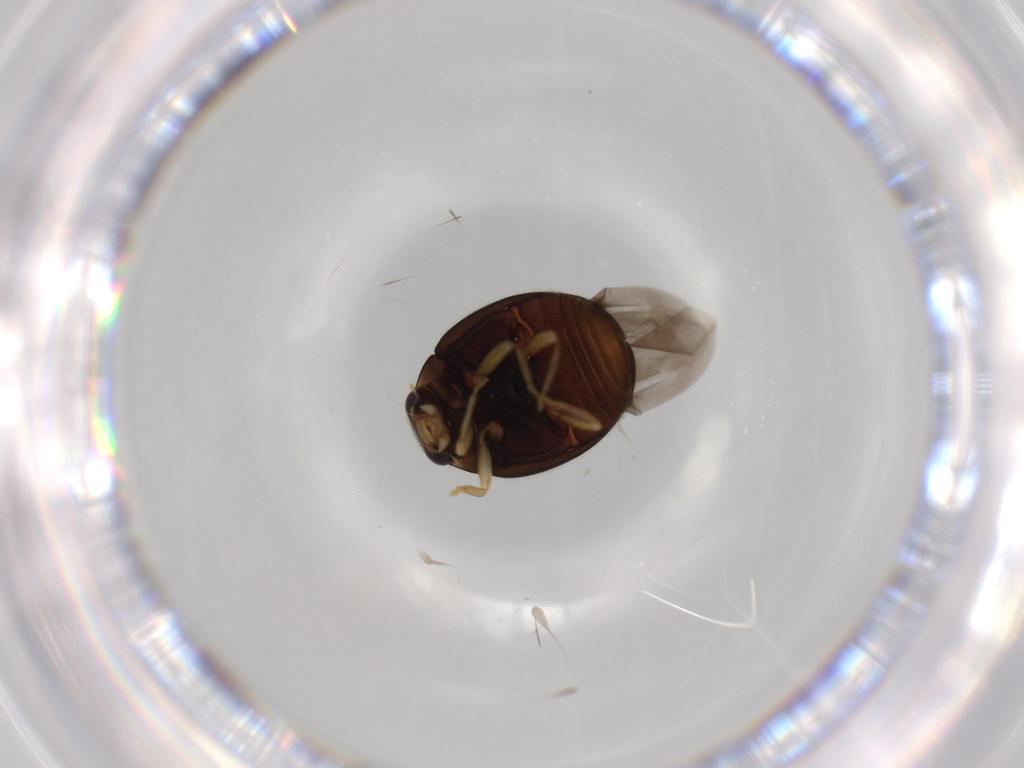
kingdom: Animalia
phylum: Arthropoda
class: Insecta
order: Coleoptera
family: Coccinellidae
